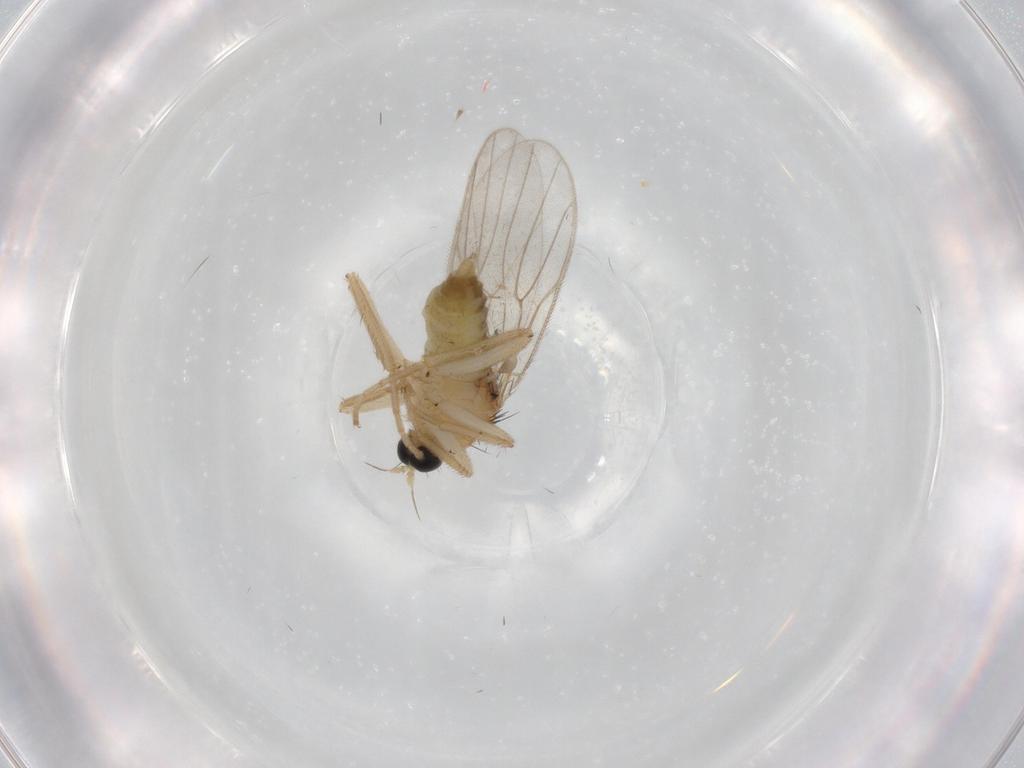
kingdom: Animalia
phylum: Arthropoda
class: Insecta
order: Diptera
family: Hybotidae
